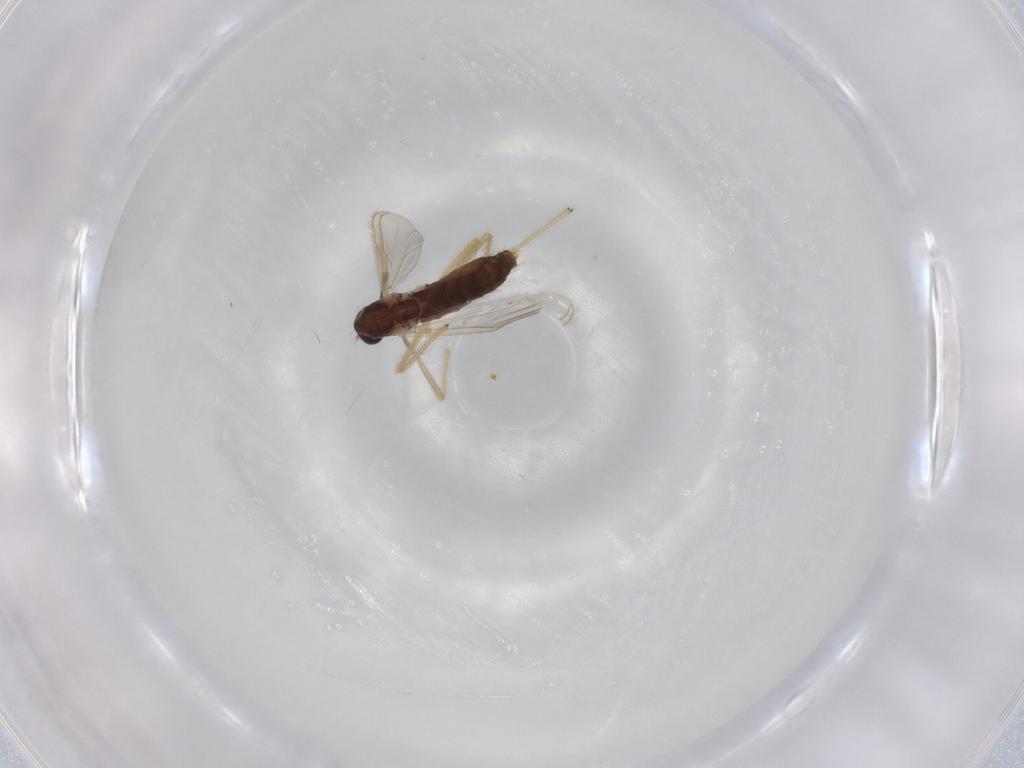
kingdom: Animalia
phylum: Arthropoda
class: Insecta
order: Diptera
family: Chironomidae
